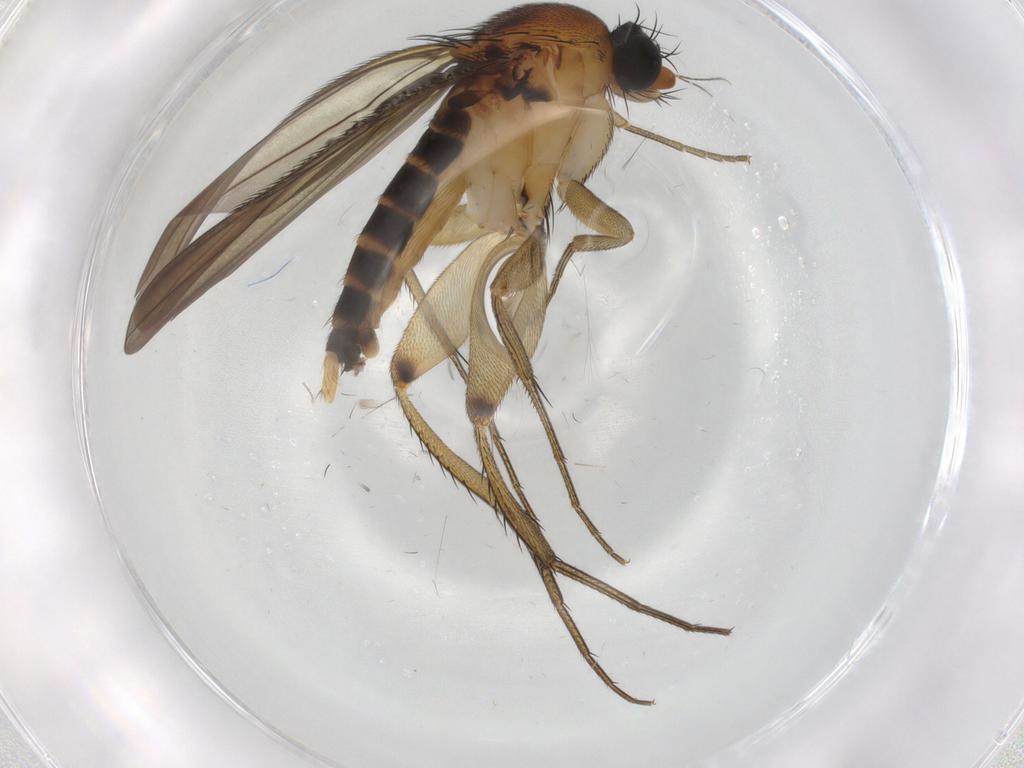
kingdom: Animalia
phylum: Arthropoda
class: Insecta
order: Diptera
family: Phoridae
